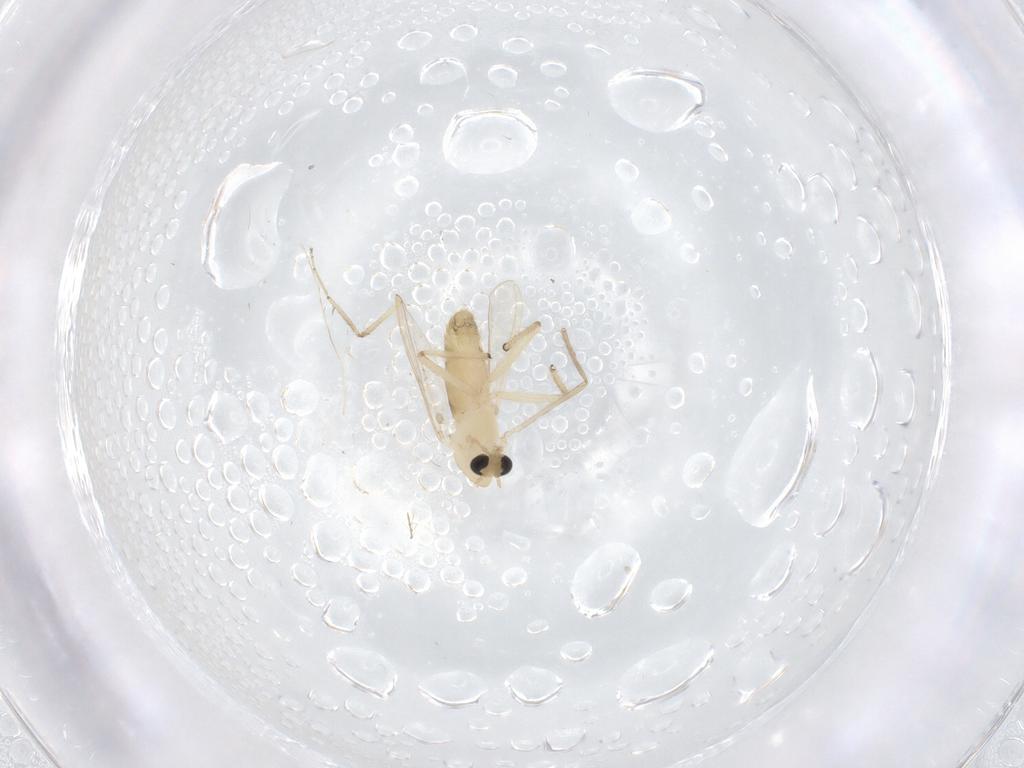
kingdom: Animalia
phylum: Arthropoda
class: Insecta
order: Diptera
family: Chironomidae
